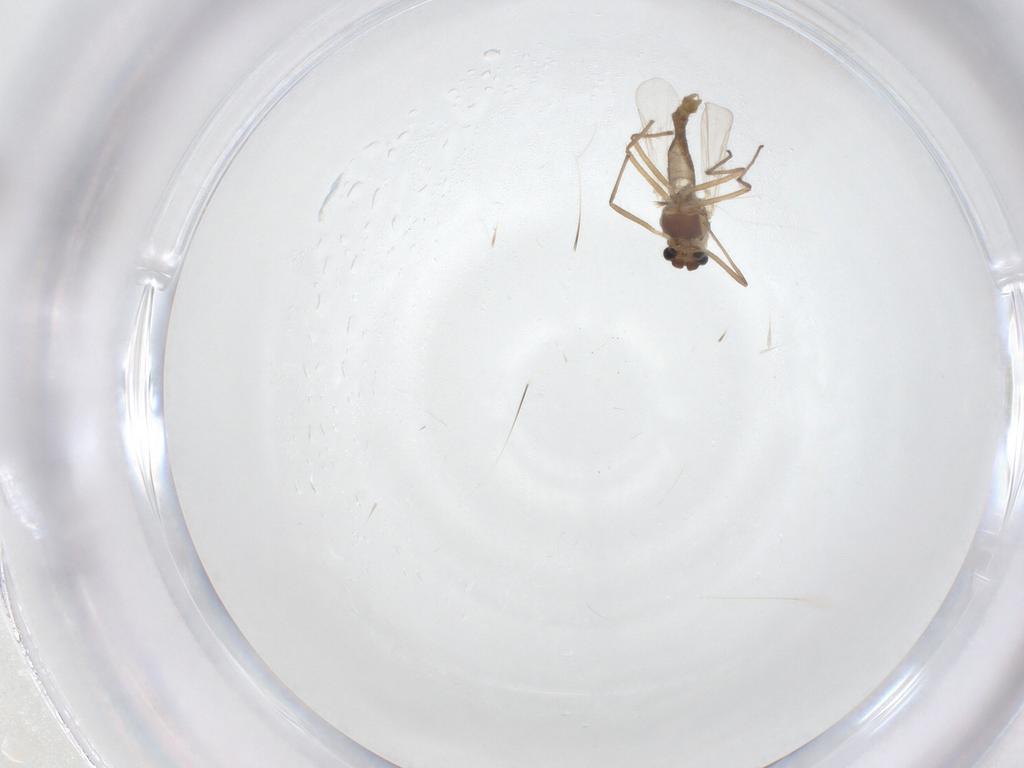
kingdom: Animalia
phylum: Arthropoda
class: Insecta
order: Diptera
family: Chironomidae
